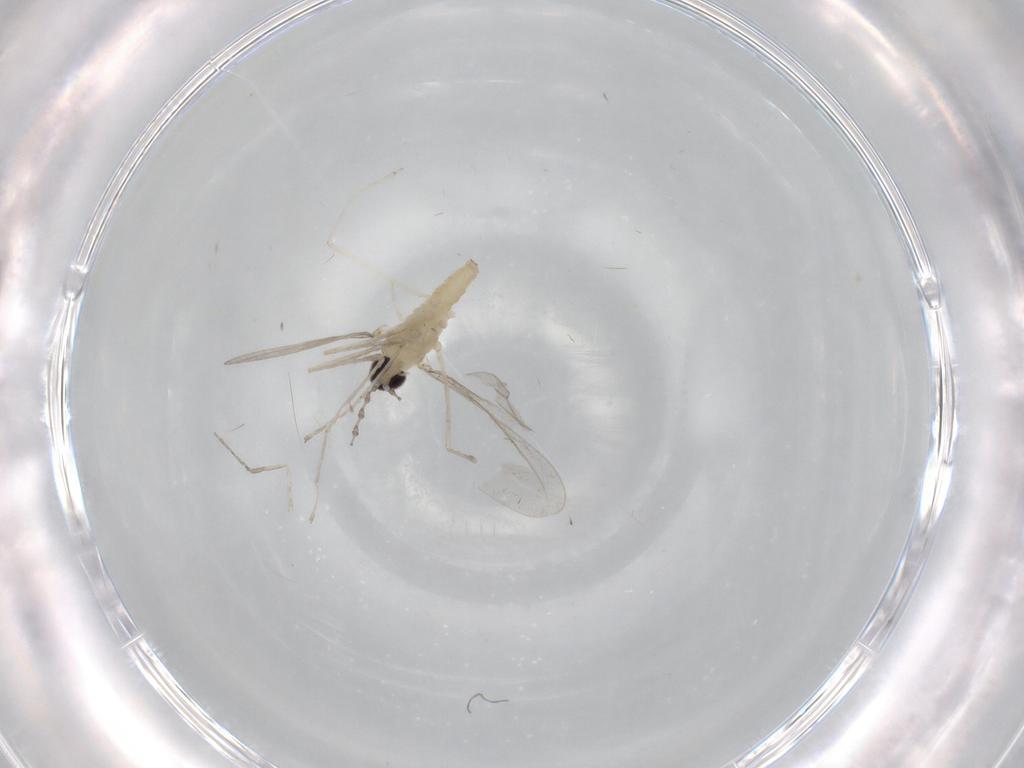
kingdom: Animalia
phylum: Arthropoda
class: Insecta
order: Diptera
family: Cecidomyiidae
